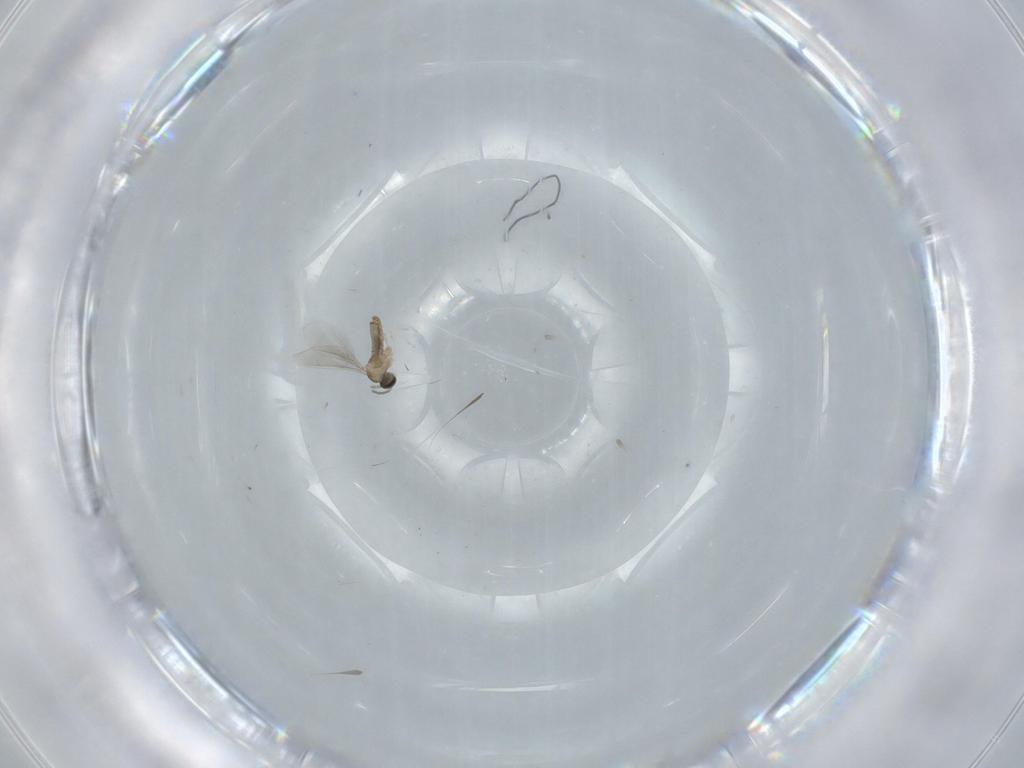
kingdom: Animalia
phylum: Arthropoda
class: Insecta
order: Diptera
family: Cecidomyiidae
